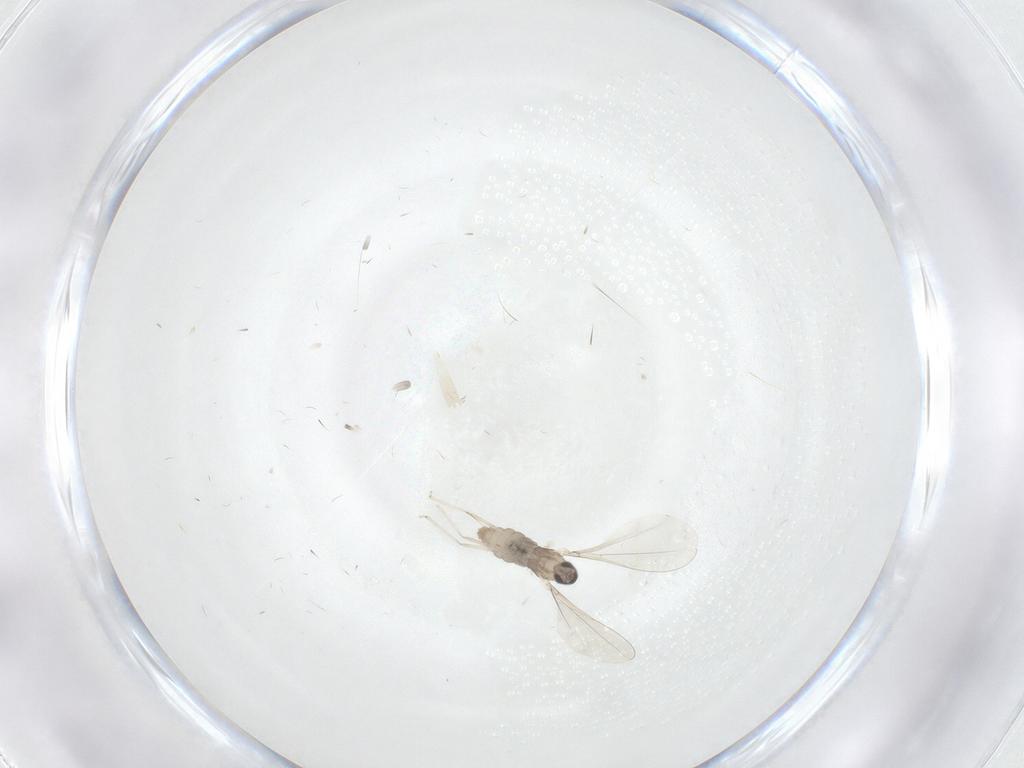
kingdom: Animalia
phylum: Arthropoda
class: Insecta
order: Diptera
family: Cecidomyiidae
